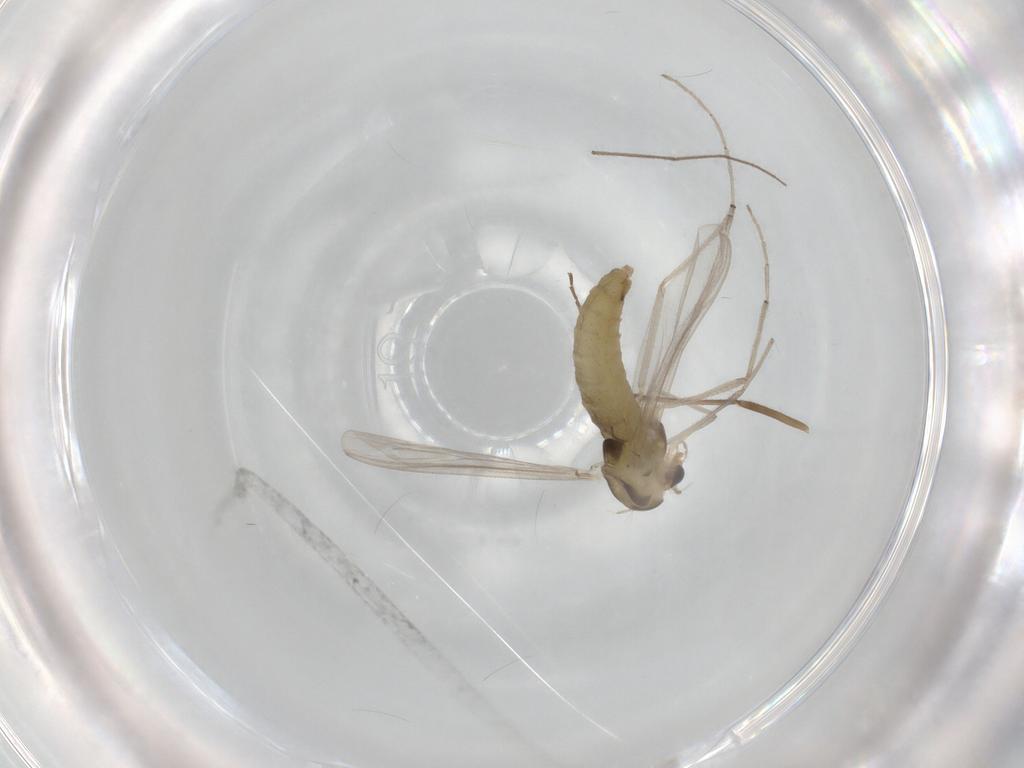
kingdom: Animalia
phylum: Arthropoda
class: Insecta
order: Diptera
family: Chironomidae
